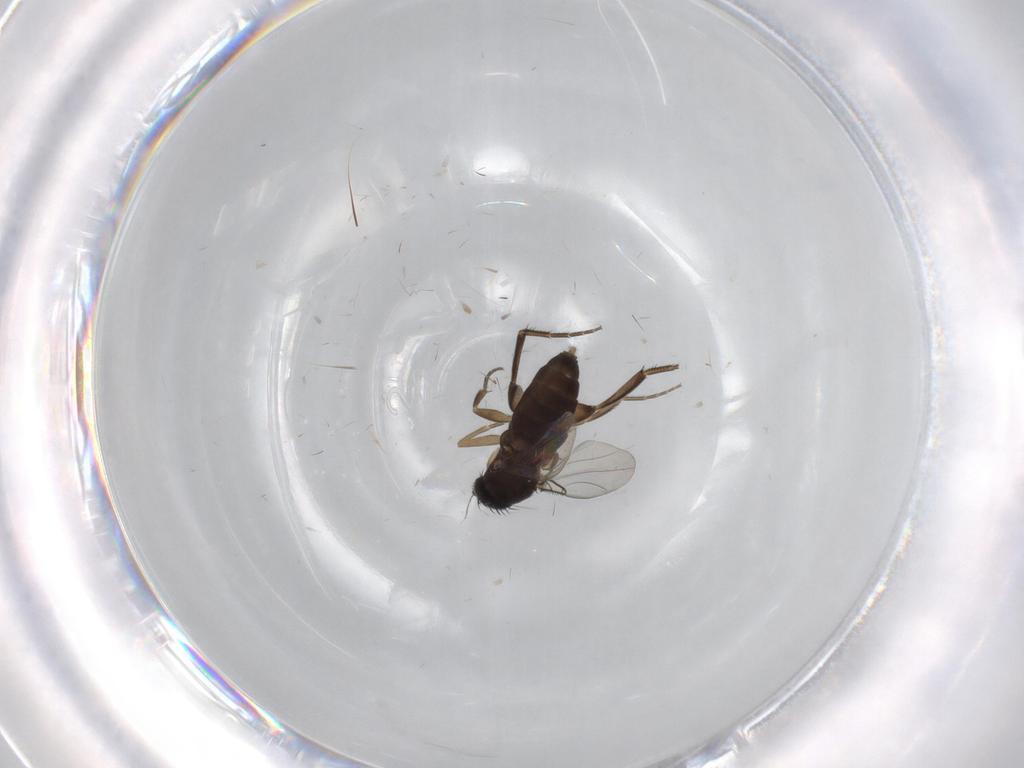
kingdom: Animalia
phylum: Arthropoda
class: Insecta
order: Diptera
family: Phoridae
